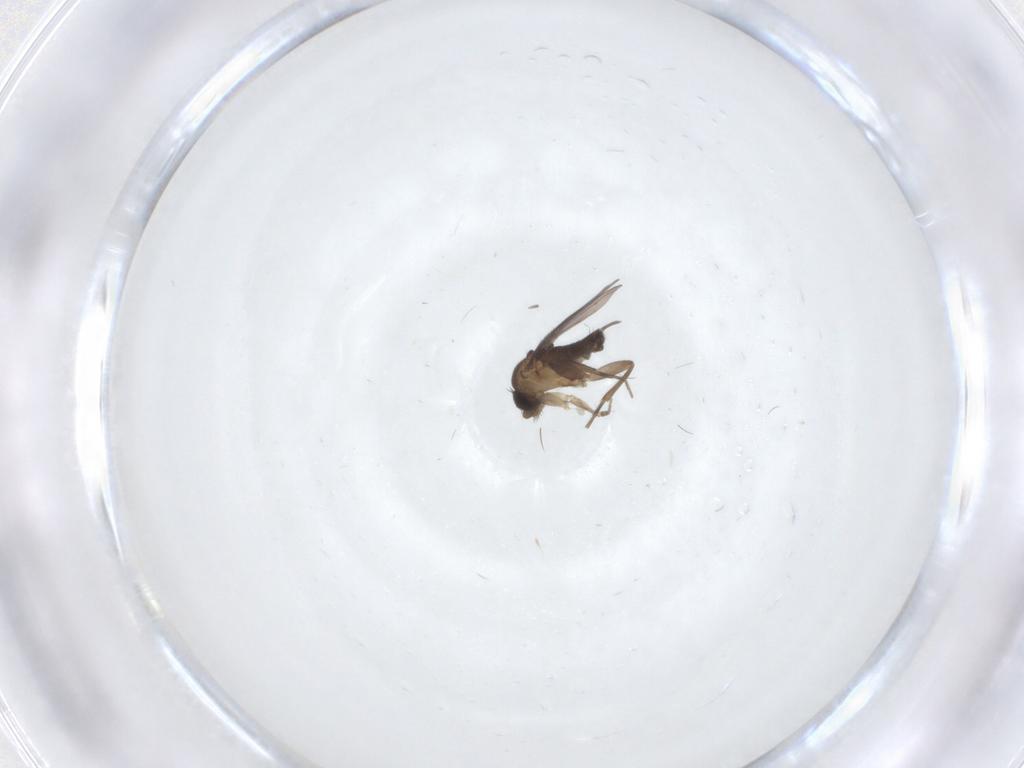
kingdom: Animalia
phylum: Arthropoda
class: Insecta
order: Diptera
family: Phoridae
